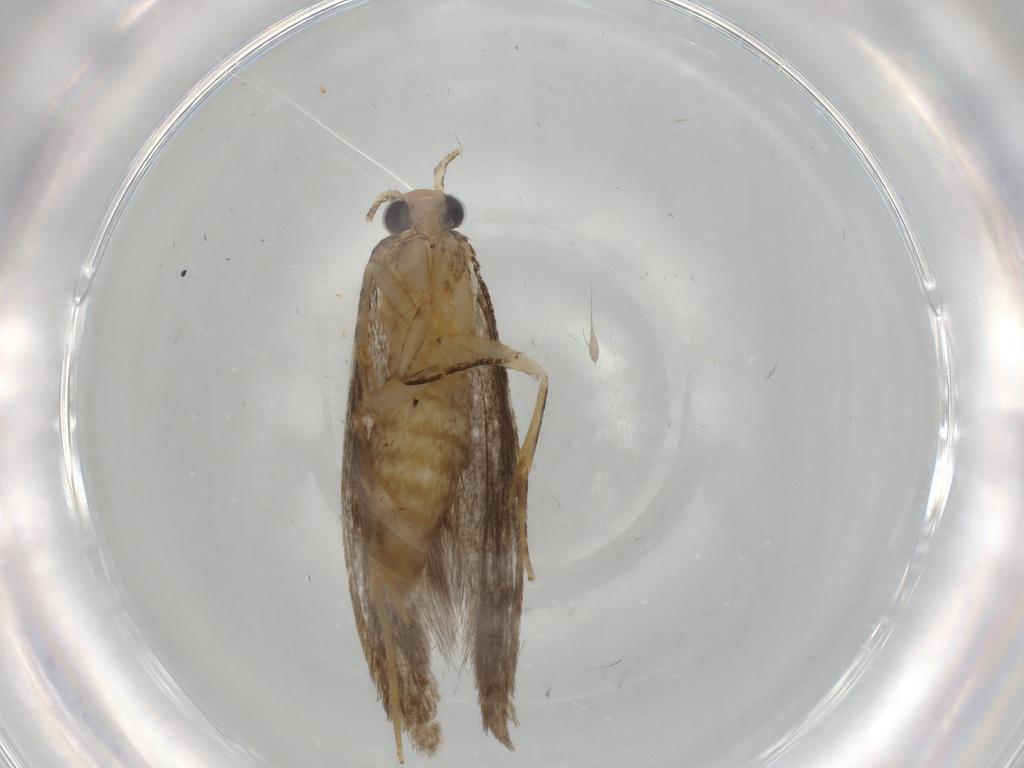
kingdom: Animalia
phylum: Arthropoda
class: Insecta
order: Lepidoptera
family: Tineidae
